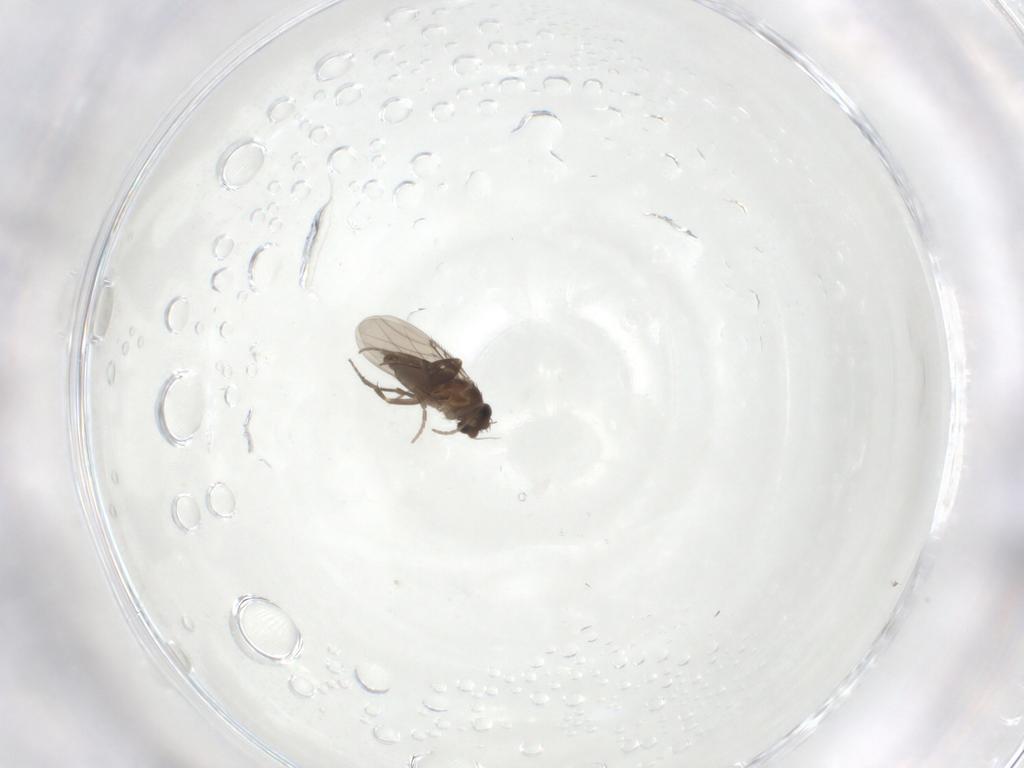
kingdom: Animalia
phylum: Arthropoda
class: Insecta
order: Diptera
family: Phoridae
